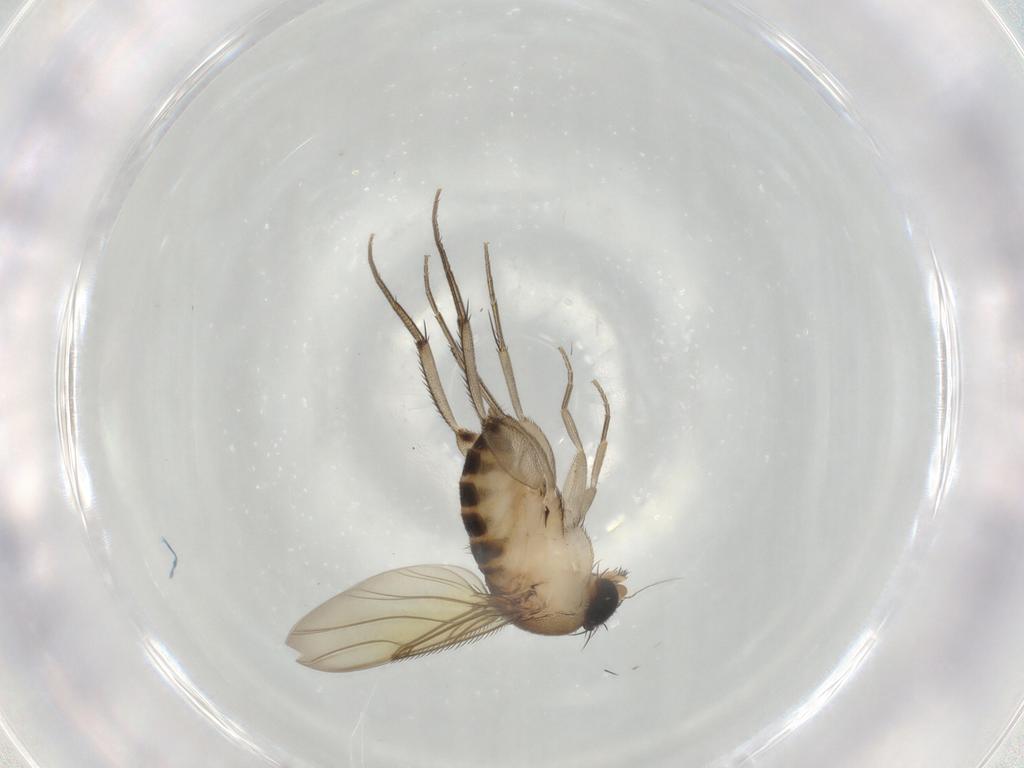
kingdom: Animalia
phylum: Arthropoda
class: Insecta
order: Diptera
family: Phoridae
